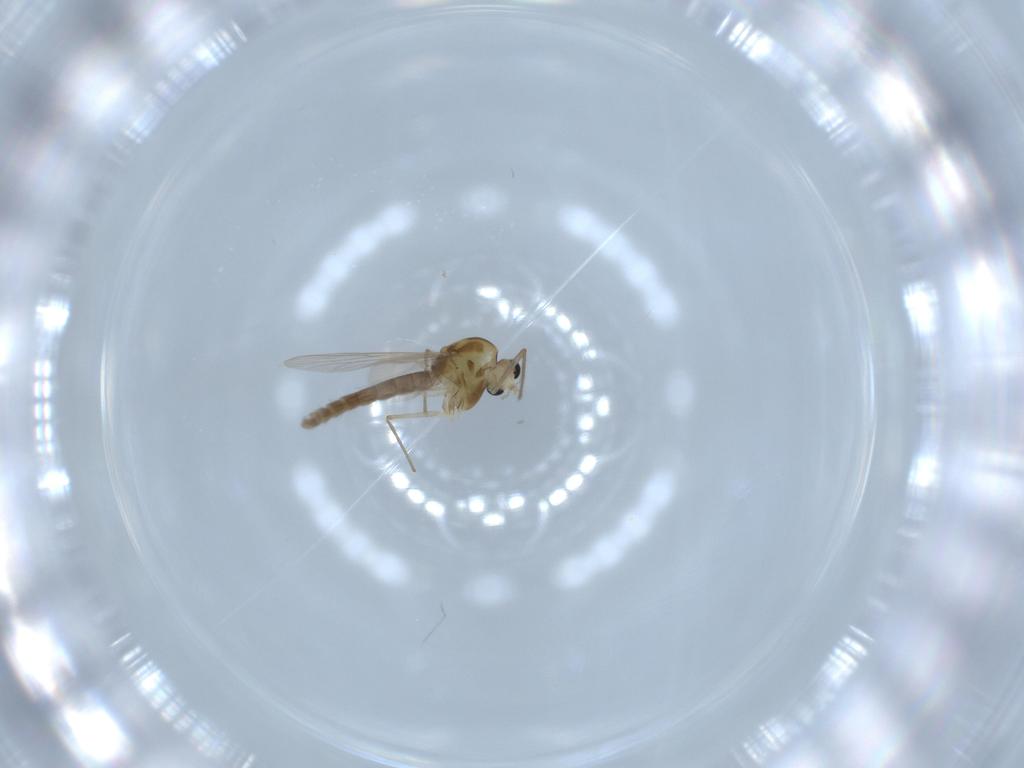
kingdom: Animalia
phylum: Arthropoda
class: Insecta
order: Diptera
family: Chironomidae
